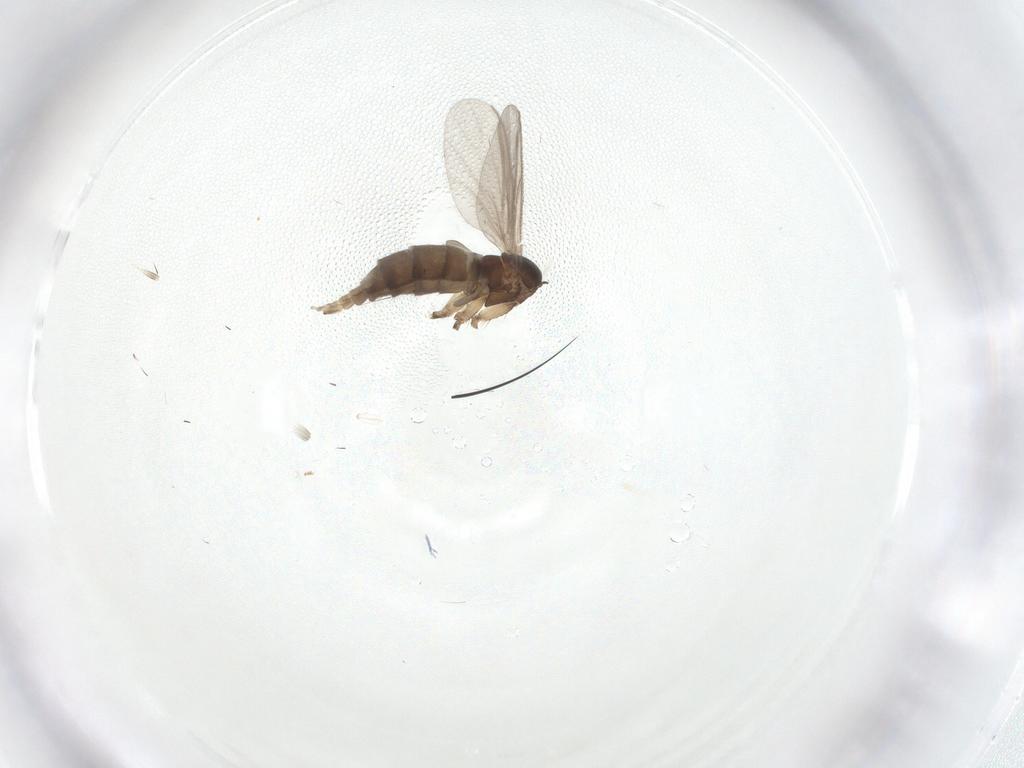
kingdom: Animalia
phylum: Arthropoda
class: Insecta
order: Diptera
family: Sciaridae
